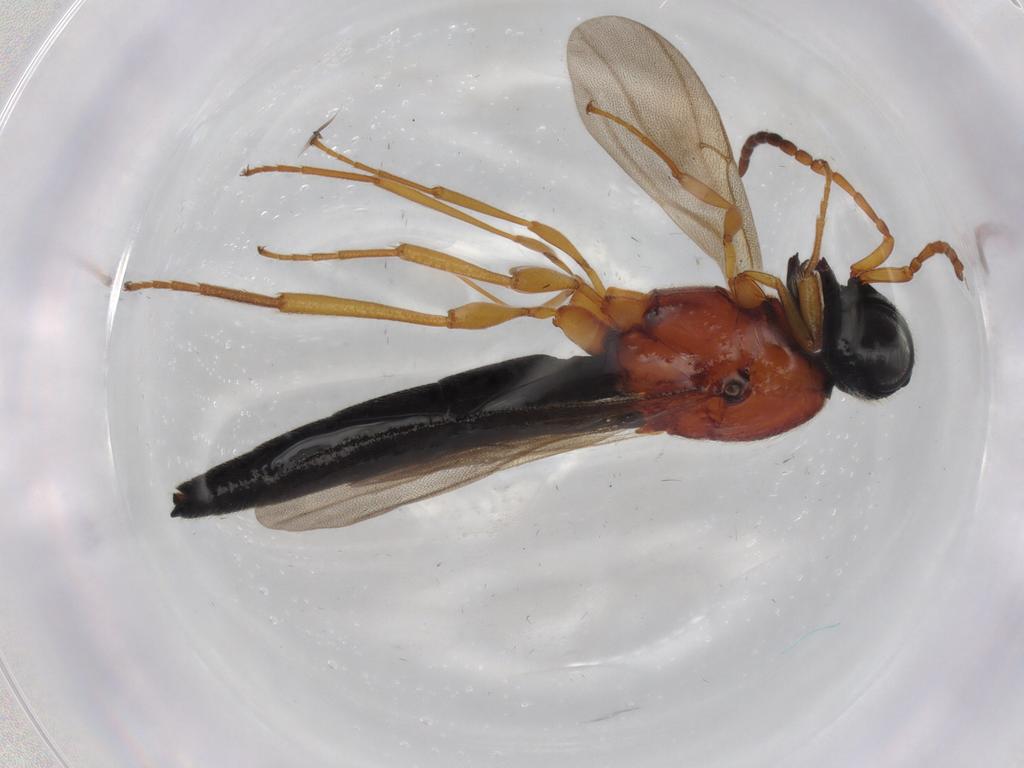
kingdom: Animalia
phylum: Arthropoda
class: Insecta
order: Hymenoptera
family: Scelionidae
